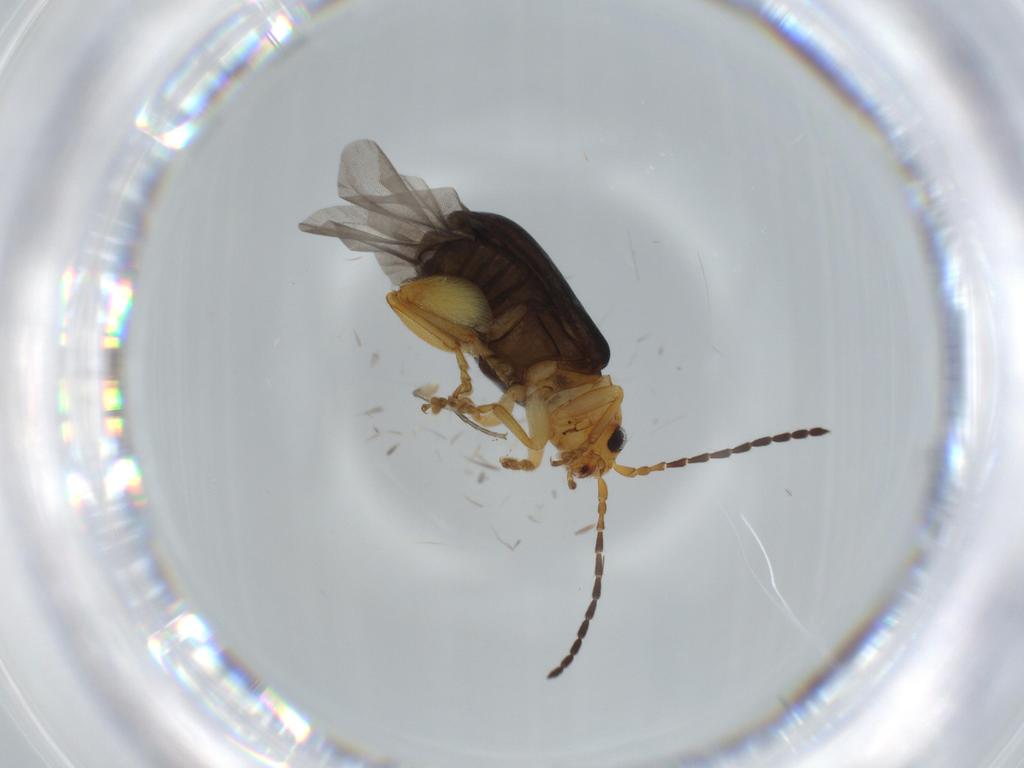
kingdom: Animalia
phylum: Arthropoda
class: Insecta
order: Coleoptera
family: Chrysomelidae
